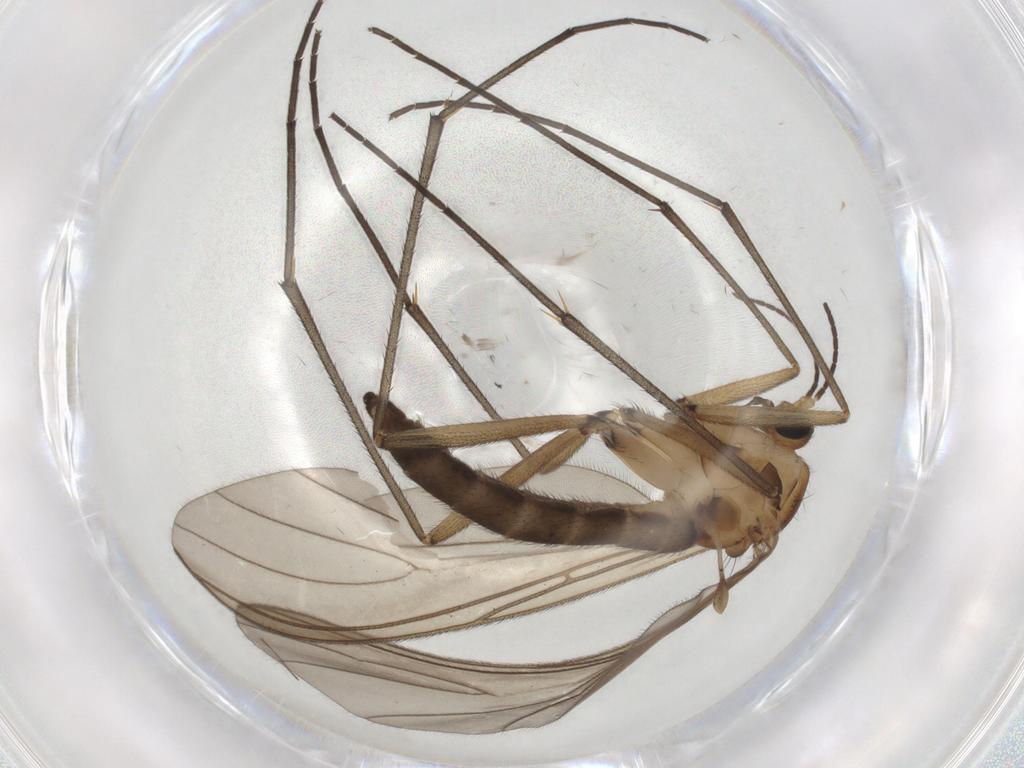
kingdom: Animalia
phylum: Arthropoda
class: Insecta
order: Diptera
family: Sciaridae
